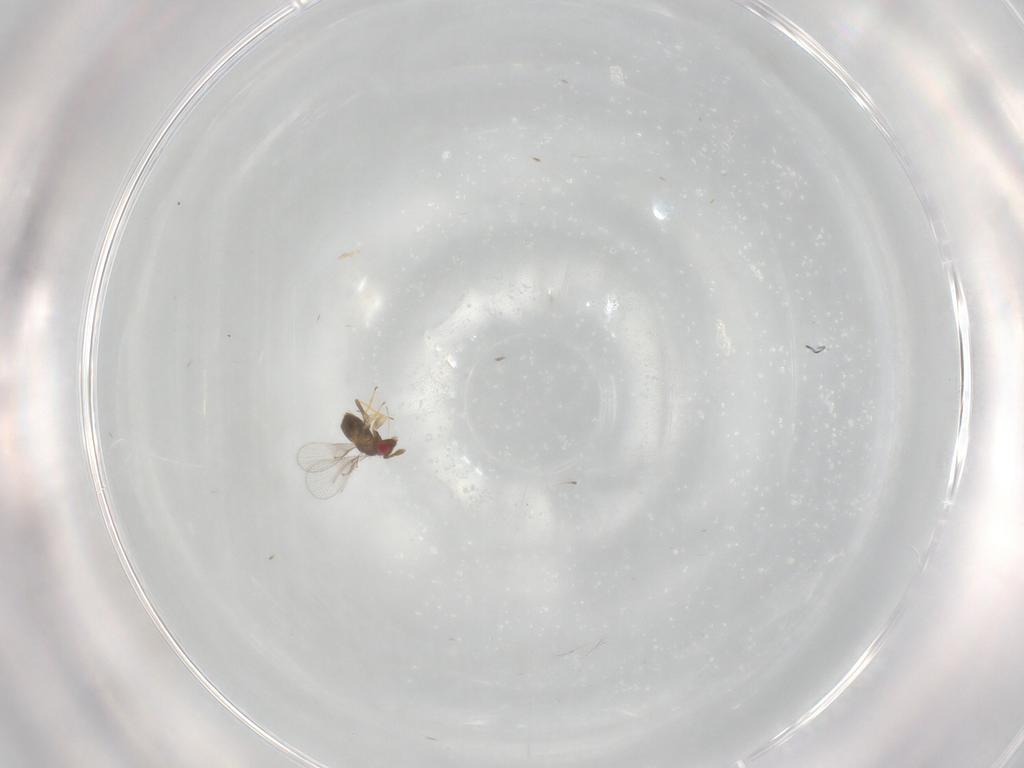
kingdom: Animalia
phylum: Arthropoda
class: Insecta
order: Hymenoptera
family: Trichogrammatidae
